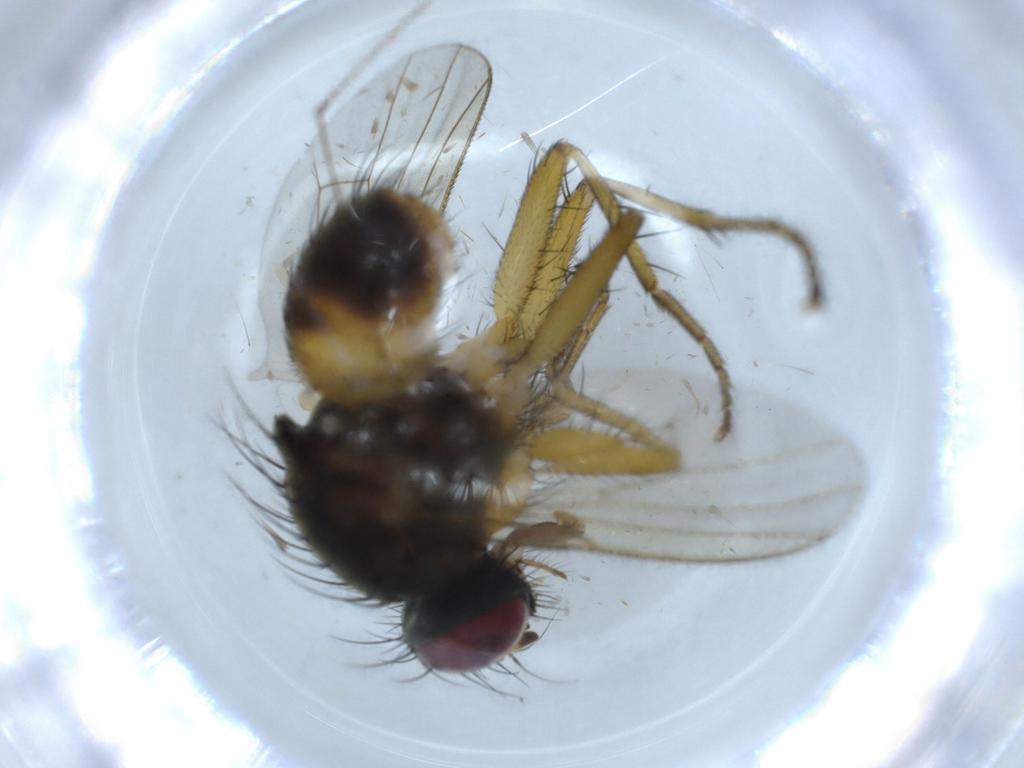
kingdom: Animalia
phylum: Arthropoda
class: Insecta
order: Diptera
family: Muscidae
